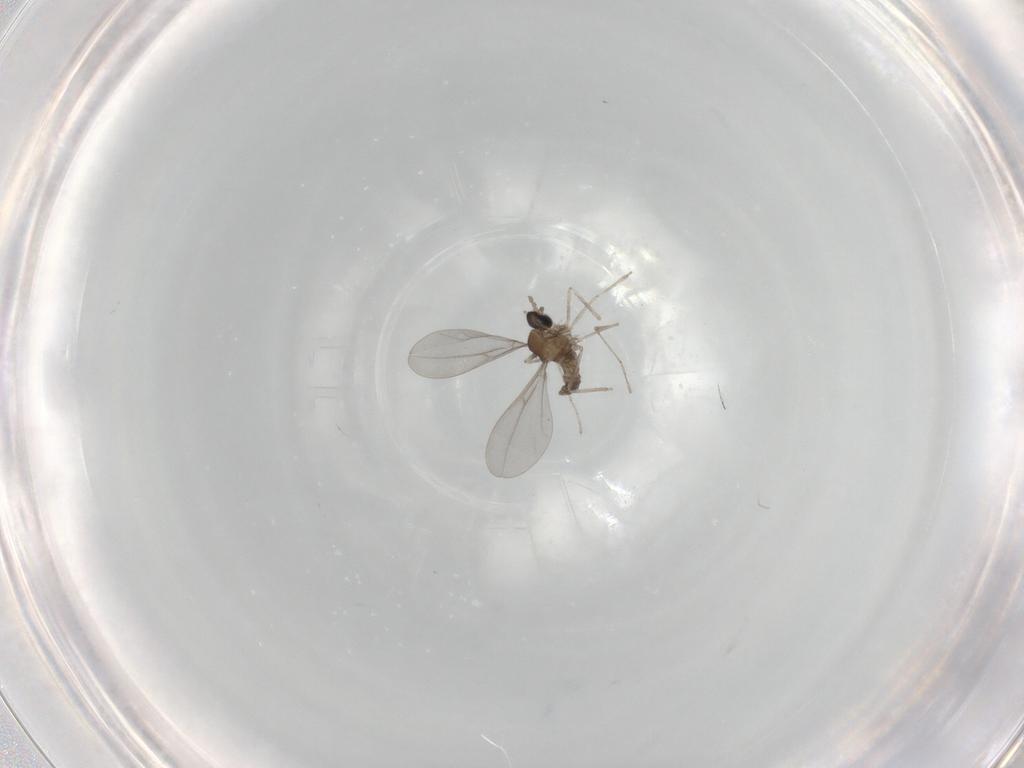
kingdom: Animalia
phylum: Arthropoda
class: Insecta
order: Diptera
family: Cecidomyiidae
